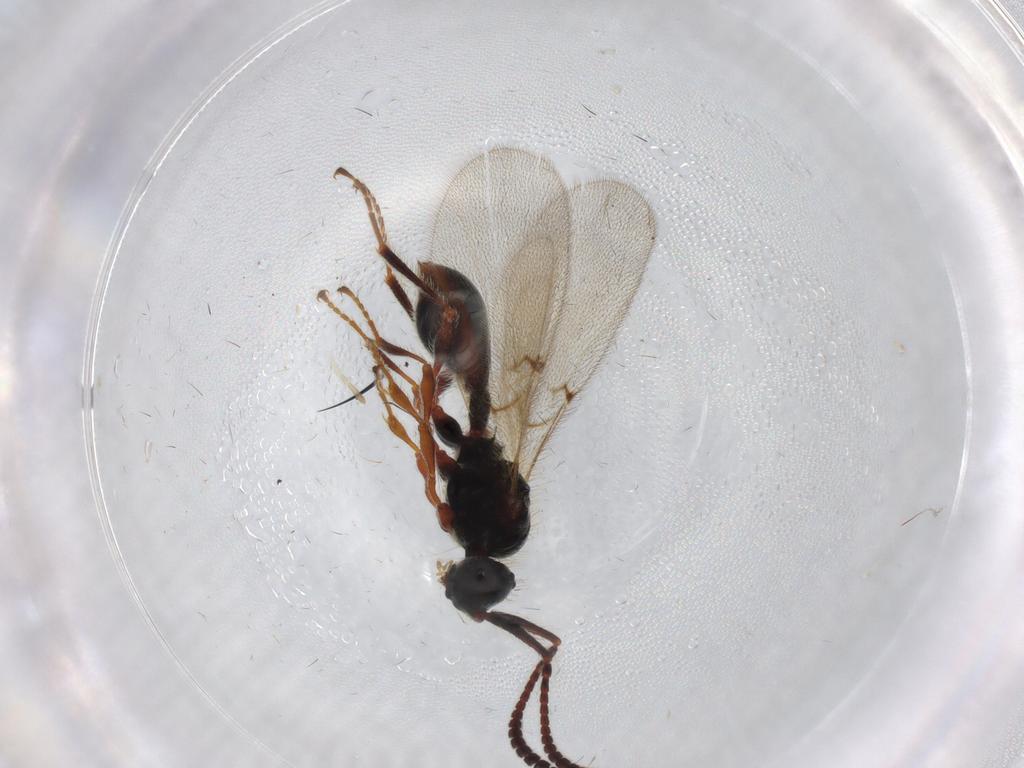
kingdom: Animalia
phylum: Arthropoda
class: Insecta
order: Hymenoptera
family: Diapriidae
